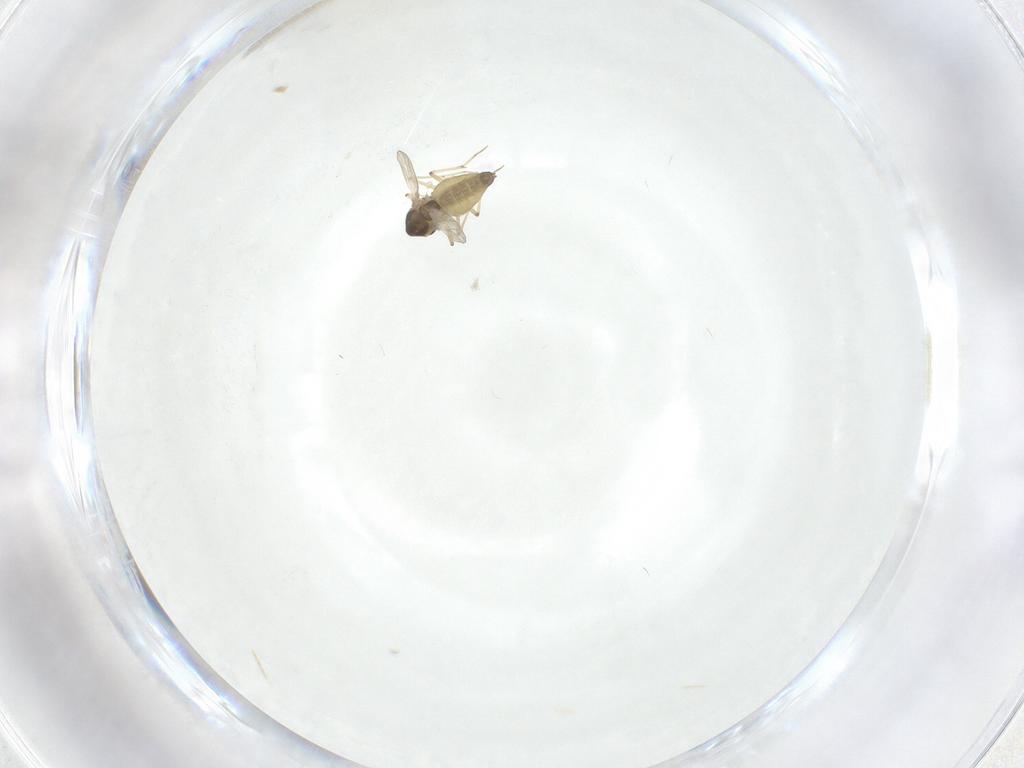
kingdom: Animalia
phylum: Arthropoda
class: Insecta
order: Diptera
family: Chironomidae
